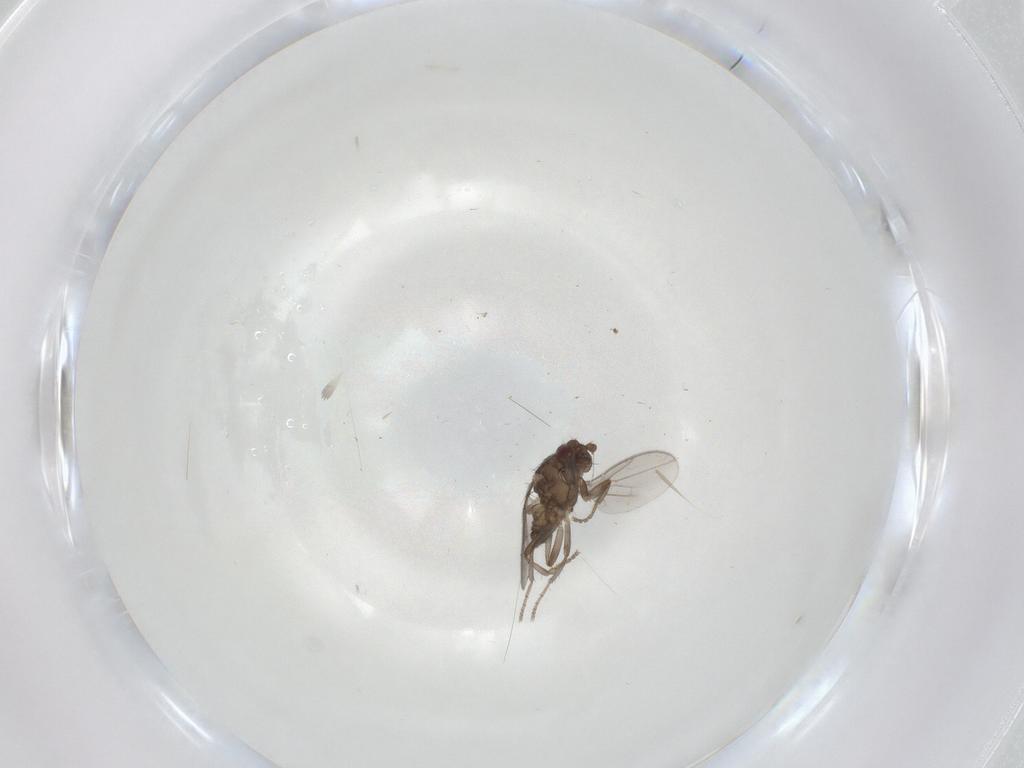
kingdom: Animalia
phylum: Arthropoda
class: Insecta
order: Diptera
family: Sphaeroceridae
